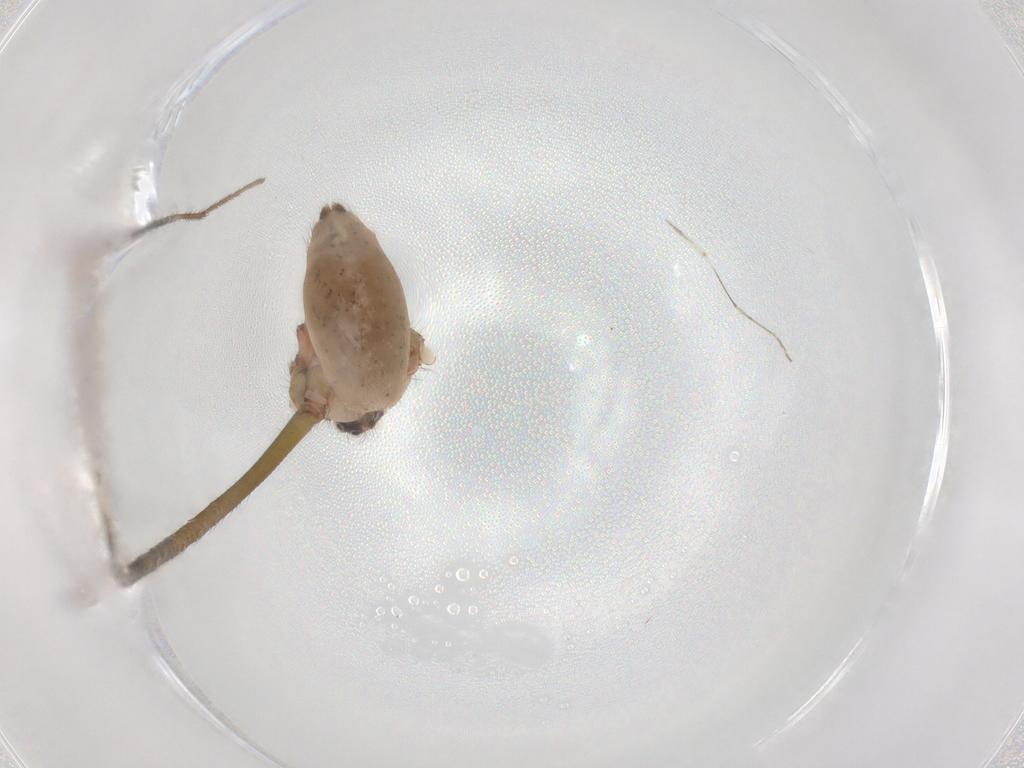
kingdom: Animalia
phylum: Arthropoda
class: Arachnida
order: Araneae
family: Pholcidae
